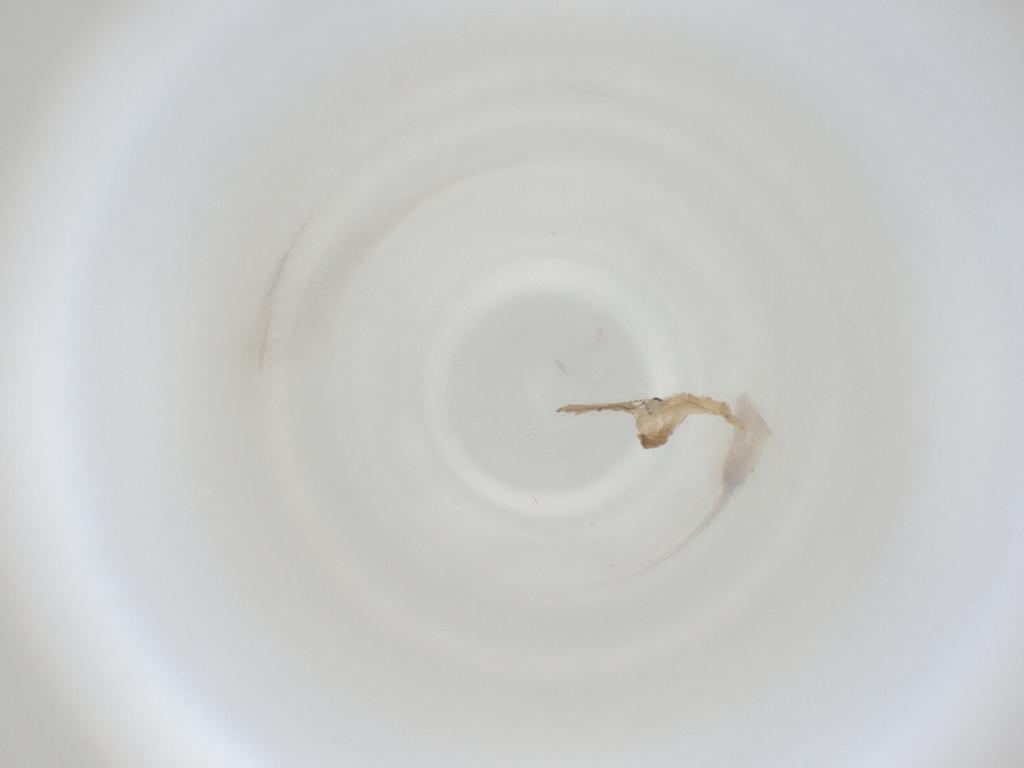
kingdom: Animalia
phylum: Arthropoda
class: Insecta
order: Diptera
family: Cecidomyiidae
